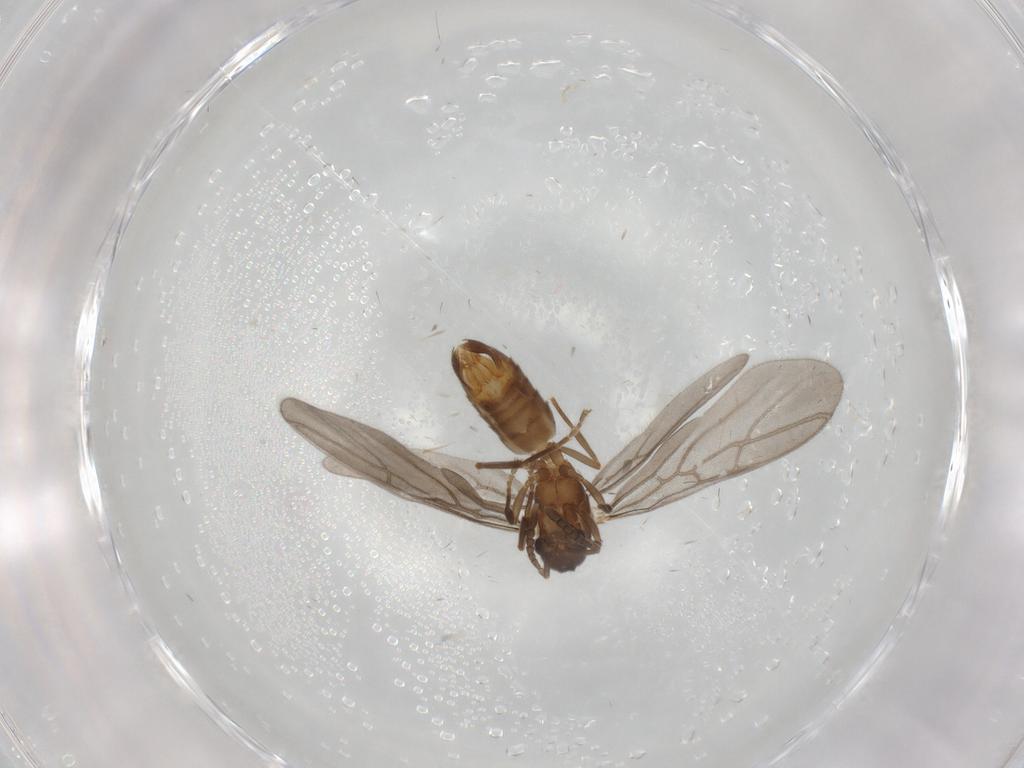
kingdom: Animalia
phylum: Arthropoda
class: Insecta
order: Hymenoptera
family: Formicidae
